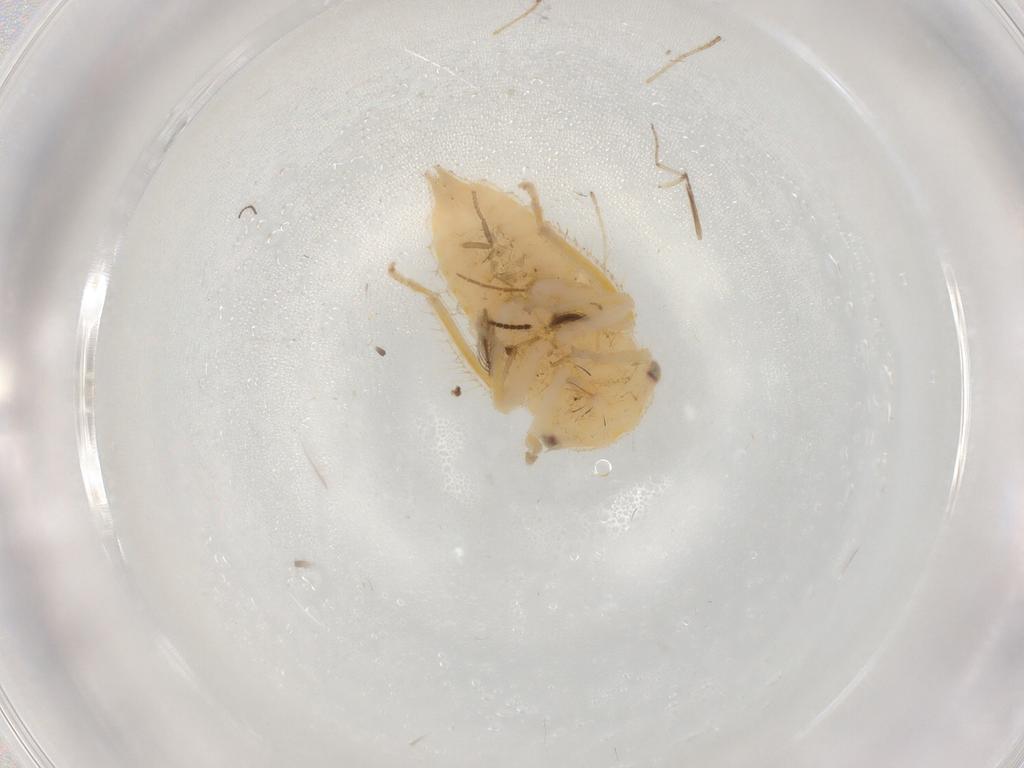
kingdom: Animalia
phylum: Arthropoda
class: Insecta
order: Hemiptera
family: Cicadellidae
